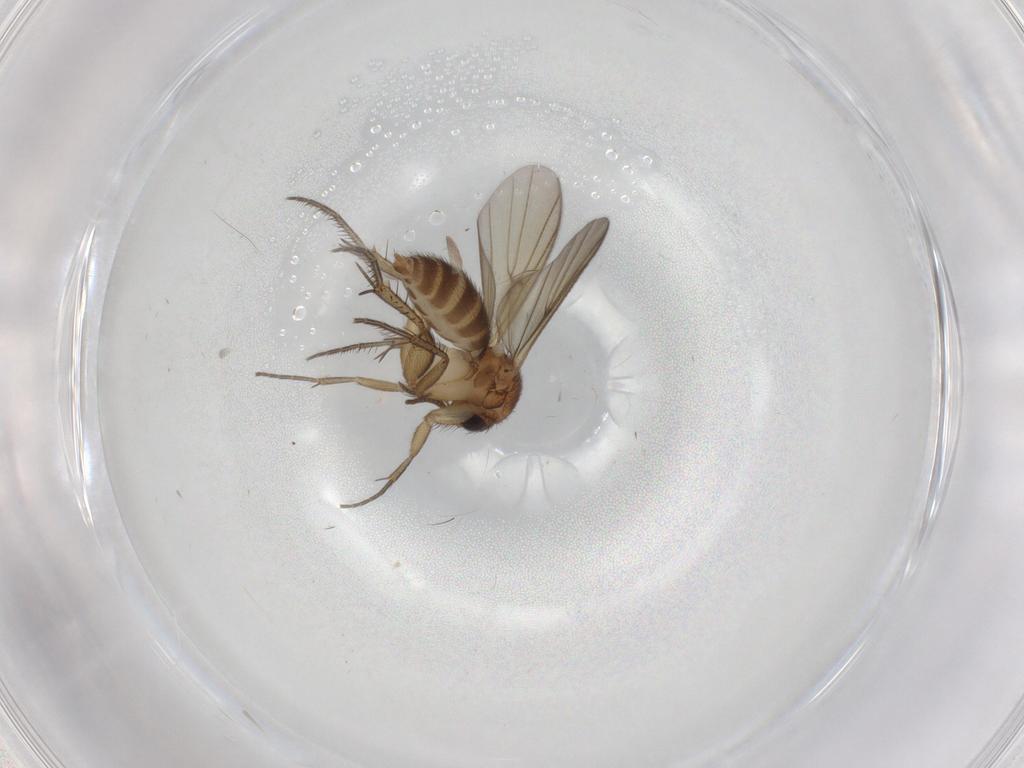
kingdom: Animalia
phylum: Arthropoda
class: Insecta
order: Diptera
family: Mycetophilidae
